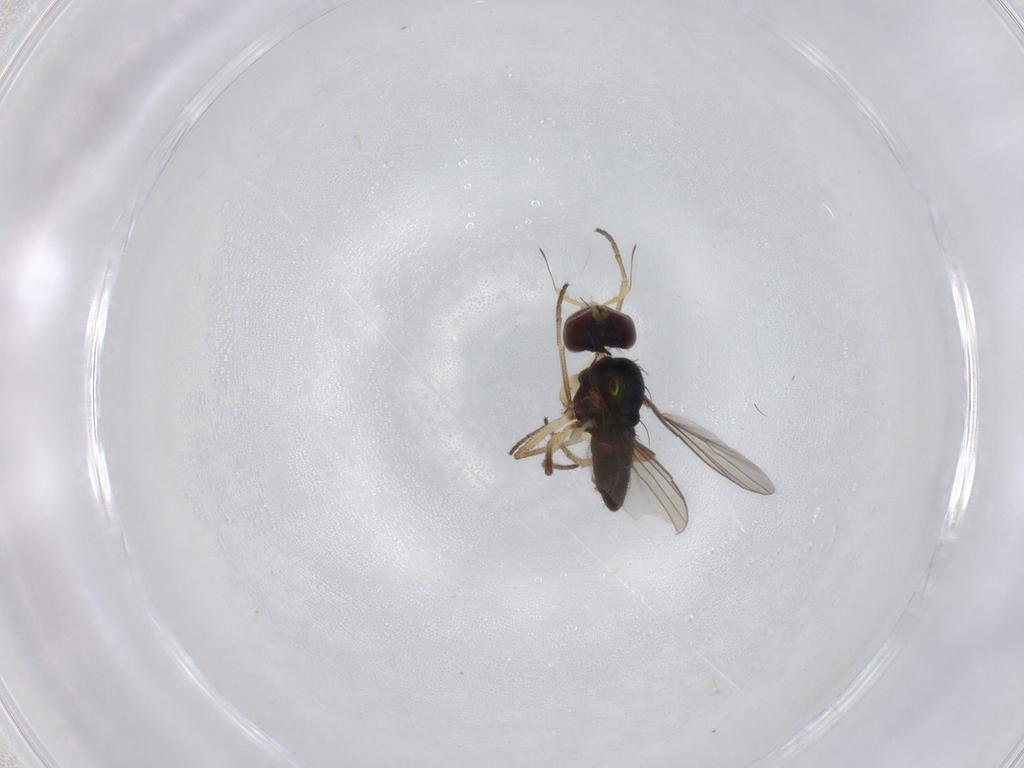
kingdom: Animalia
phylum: Arthropoda
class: Insecta
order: Diptera
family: Dolichopodidae
